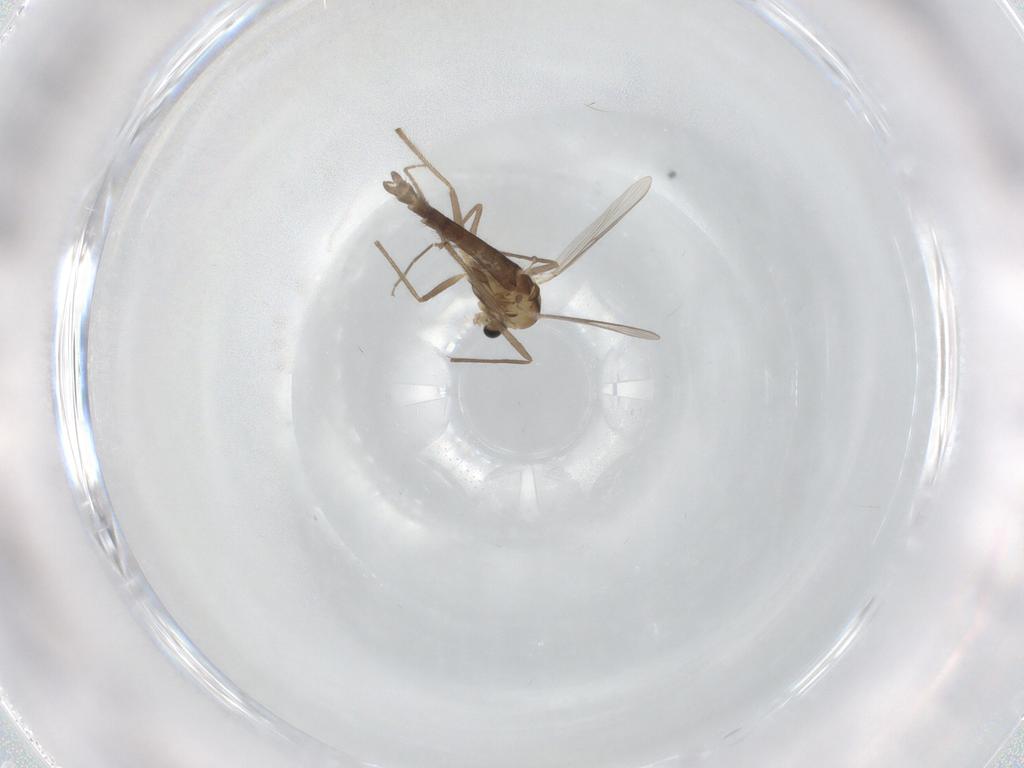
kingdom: Animalia
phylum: Arthropoda
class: Insecta
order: Diptera
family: Chironomidae
